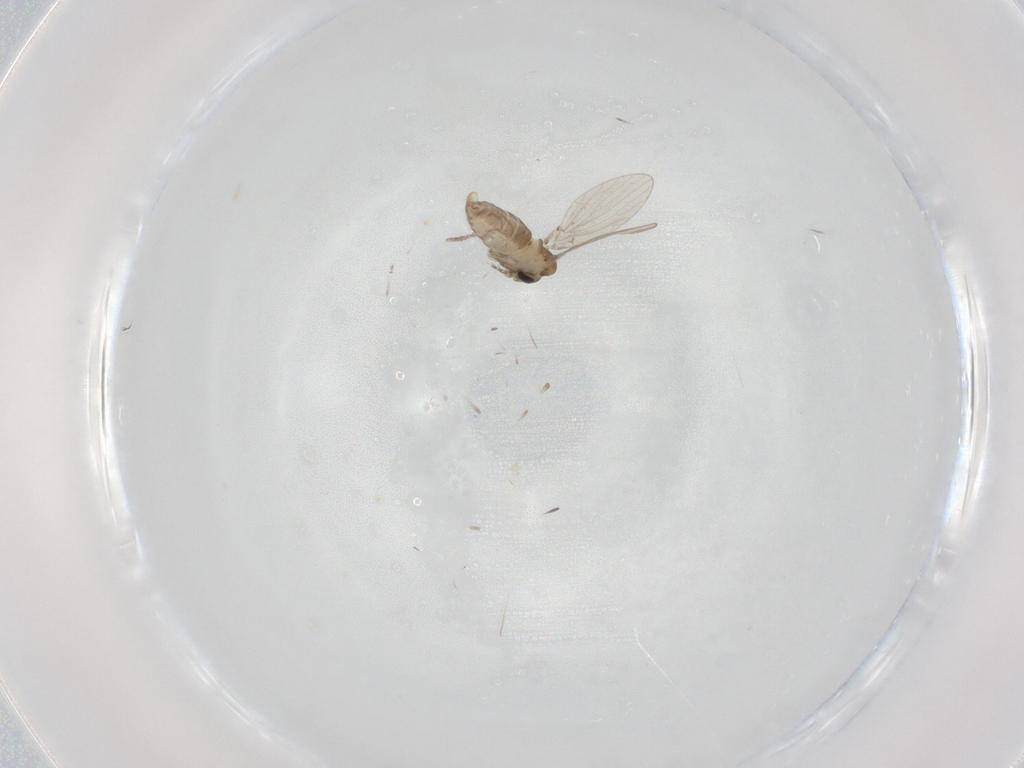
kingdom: Animalia
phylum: Arthropoda
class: Insecta
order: Diptera
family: Psychodidae
